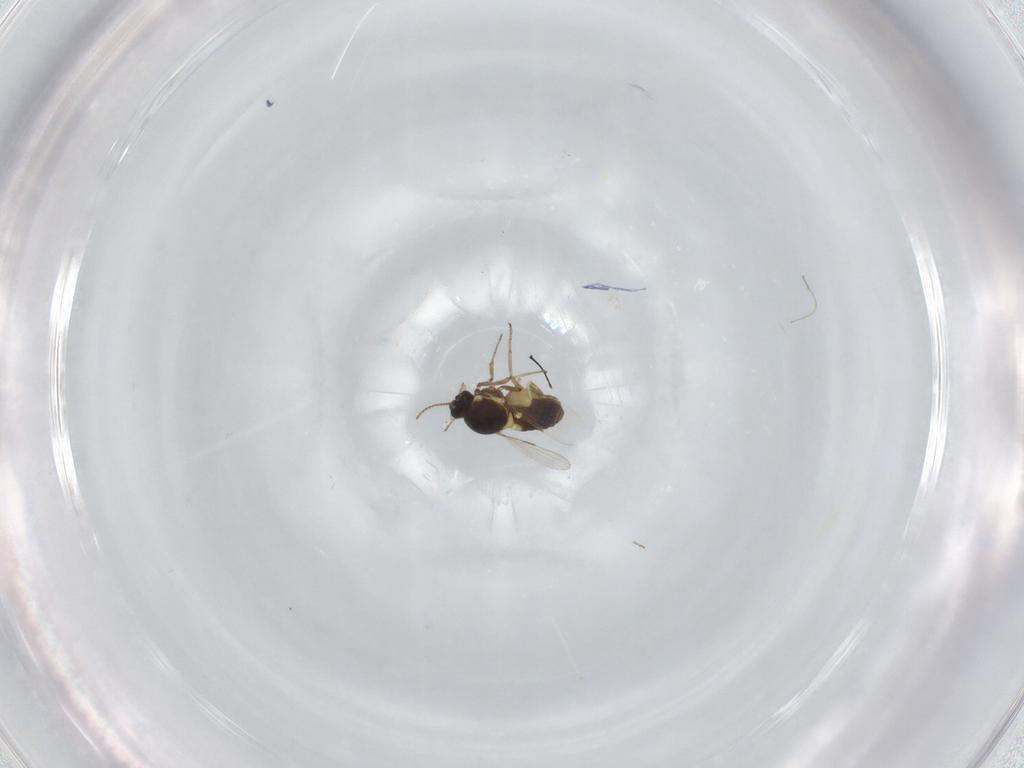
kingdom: Animalia
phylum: Arthropoda
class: Insecta
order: Diptera
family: Ceratopogonidae
